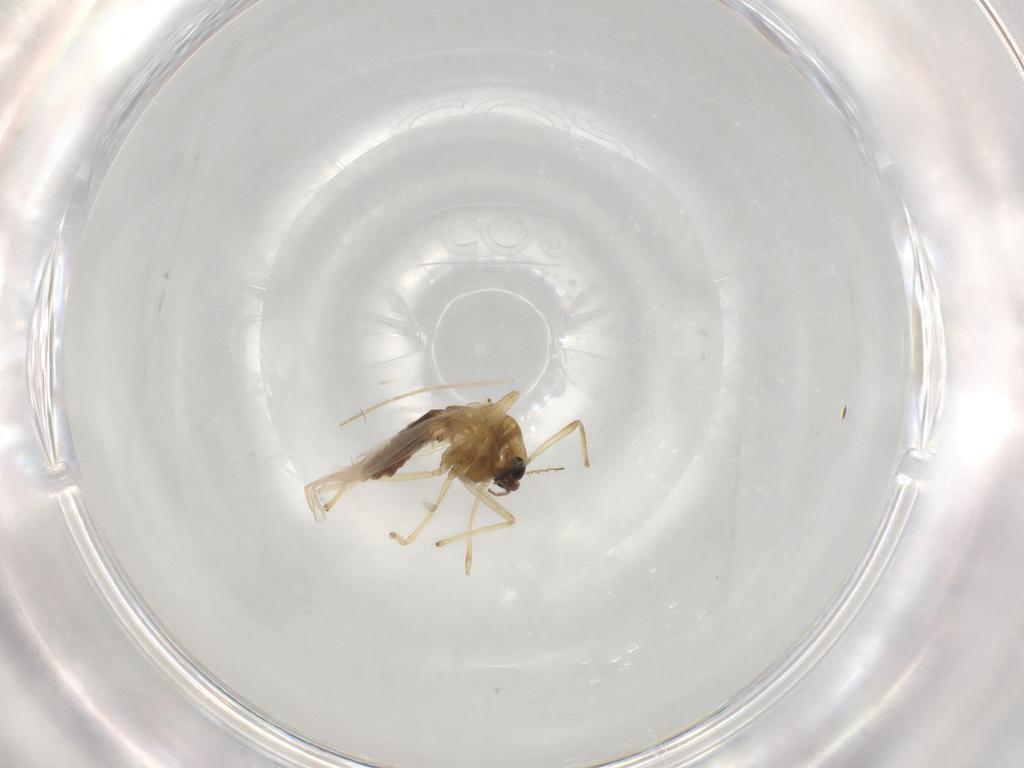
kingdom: Animalia
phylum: Arthropoda
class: Insecta
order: Diptera
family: Chironomidae
